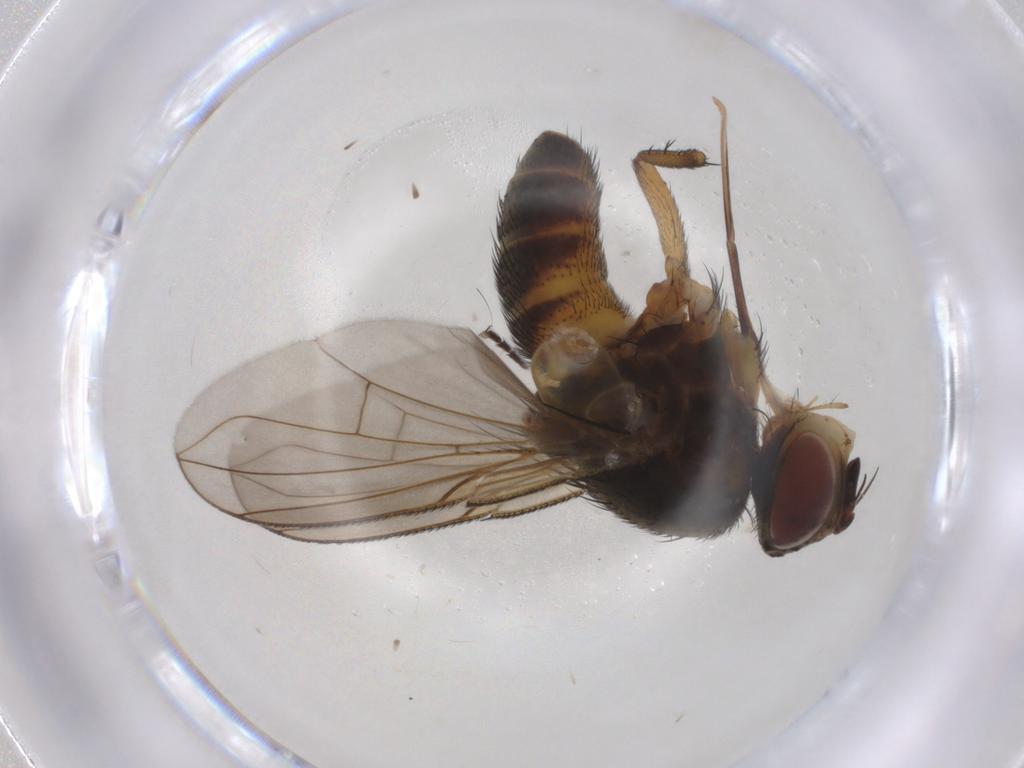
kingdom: Animalia
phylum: Arthropoda
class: Insecta
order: Diptera
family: Tachinidae
